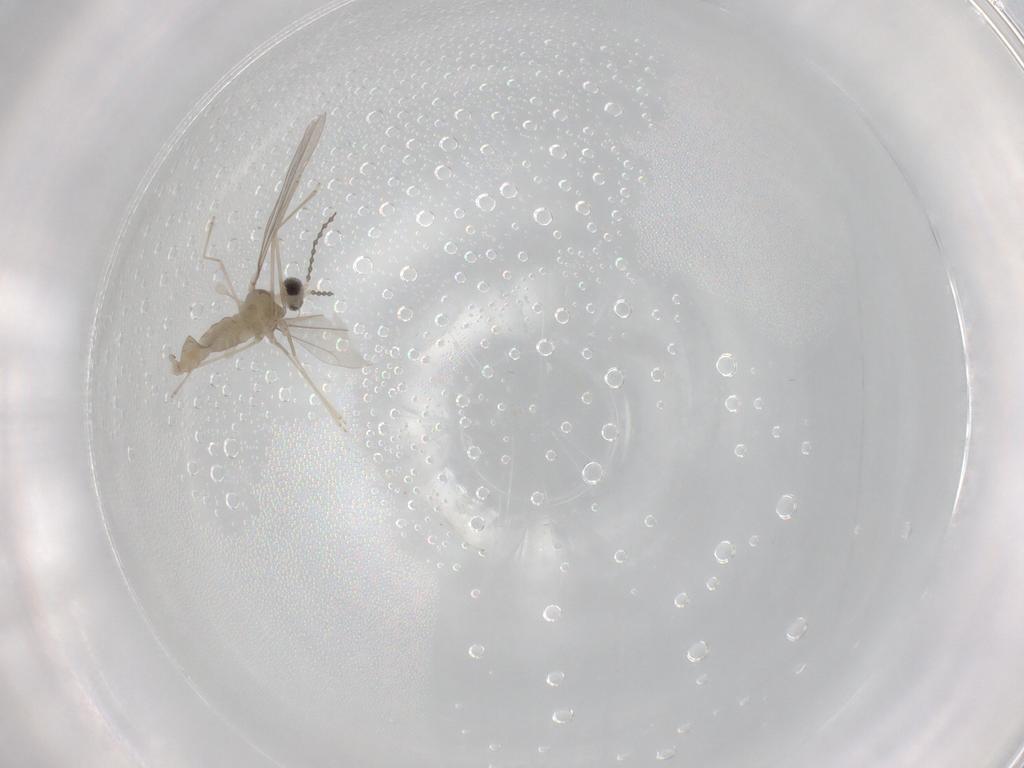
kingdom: Animalia
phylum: Arthropoda
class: Insecta
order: Diptera
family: Cecidomyiidae
